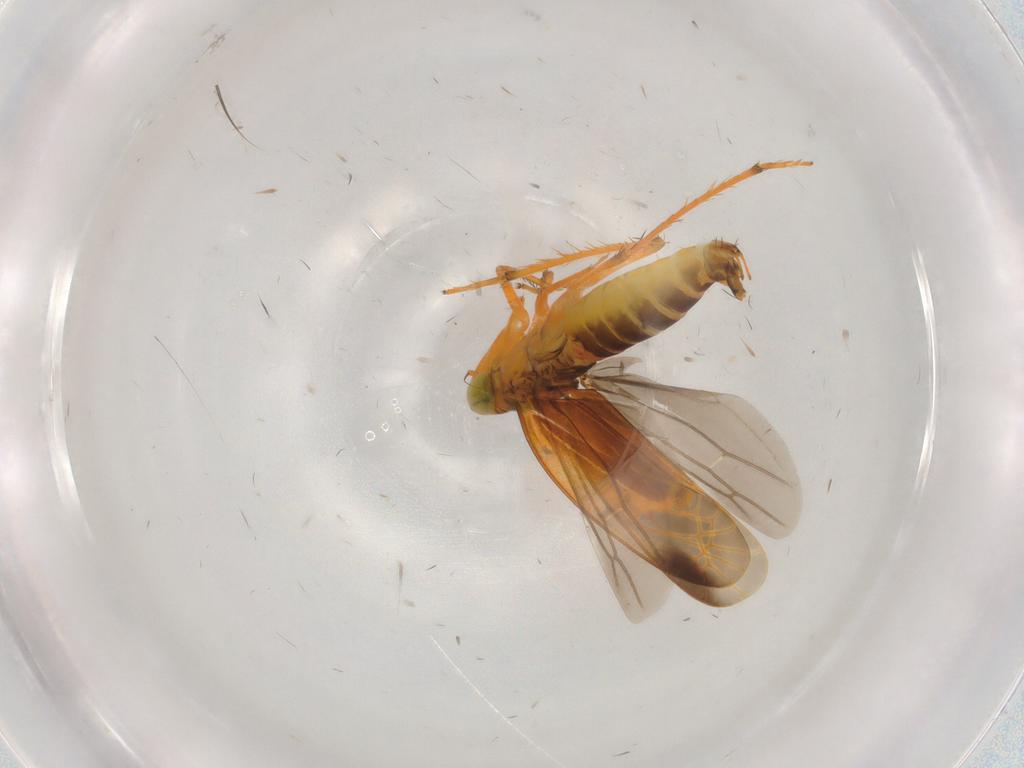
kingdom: Animalia
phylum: Arthropoda
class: Insecta
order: Hemiptera
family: Cicadellidae
